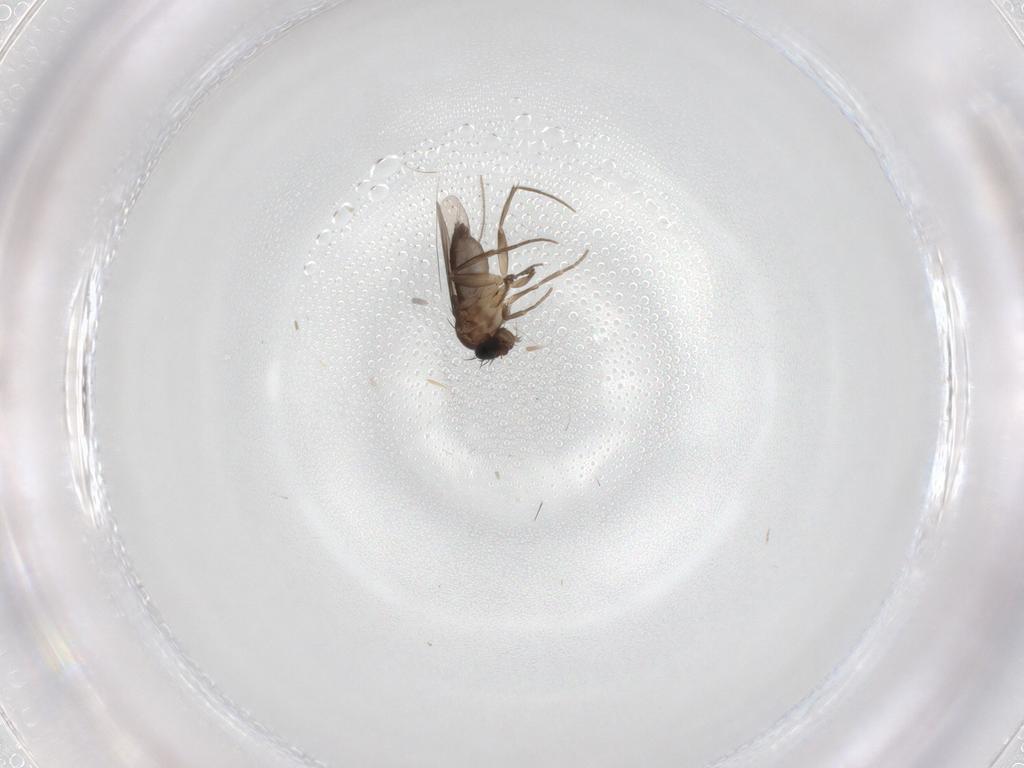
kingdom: Animalia
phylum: Arthropoda
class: Insecta
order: Diptera
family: Phoridae
